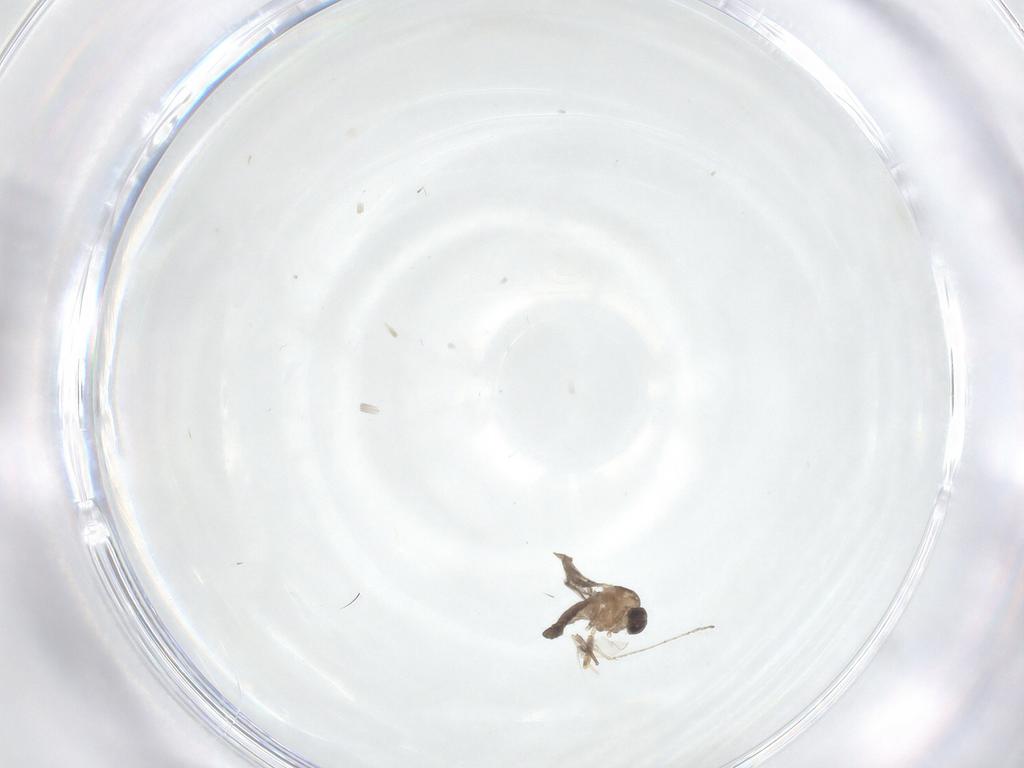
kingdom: Animalia
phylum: Arthropoda
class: Insecta
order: Diptera
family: Cecidomyiidae
